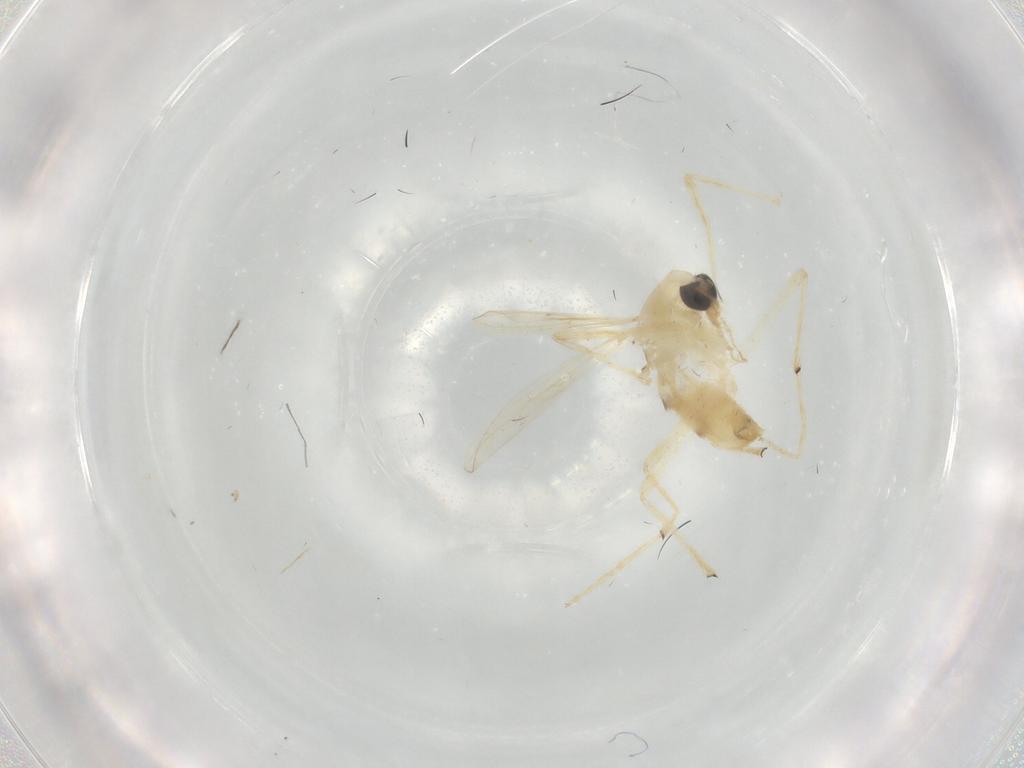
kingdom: Animalia
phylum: Arthropoda
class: Insecta
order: Diptera
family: Chironomidae
